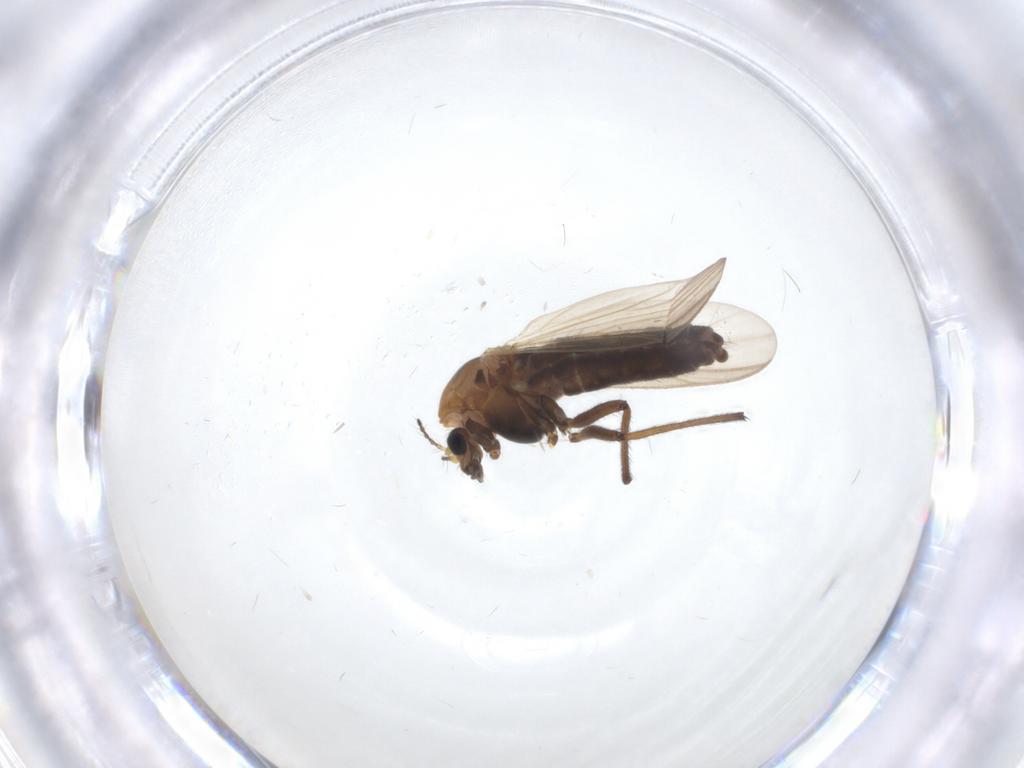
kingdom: Animalia
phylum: Arthropoda
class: Insecta
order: Diptera
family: Chironomidae
